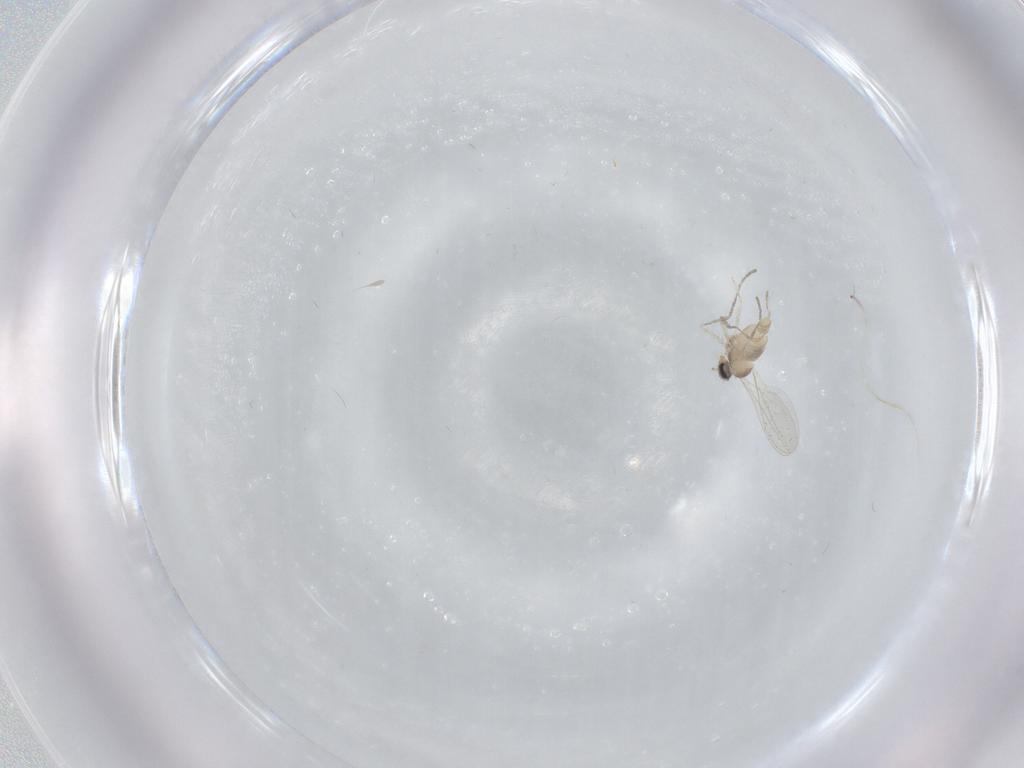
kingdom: Animalia
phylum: Arthropoda
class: Insecta
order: Diptera
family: Cecidomyiidae
